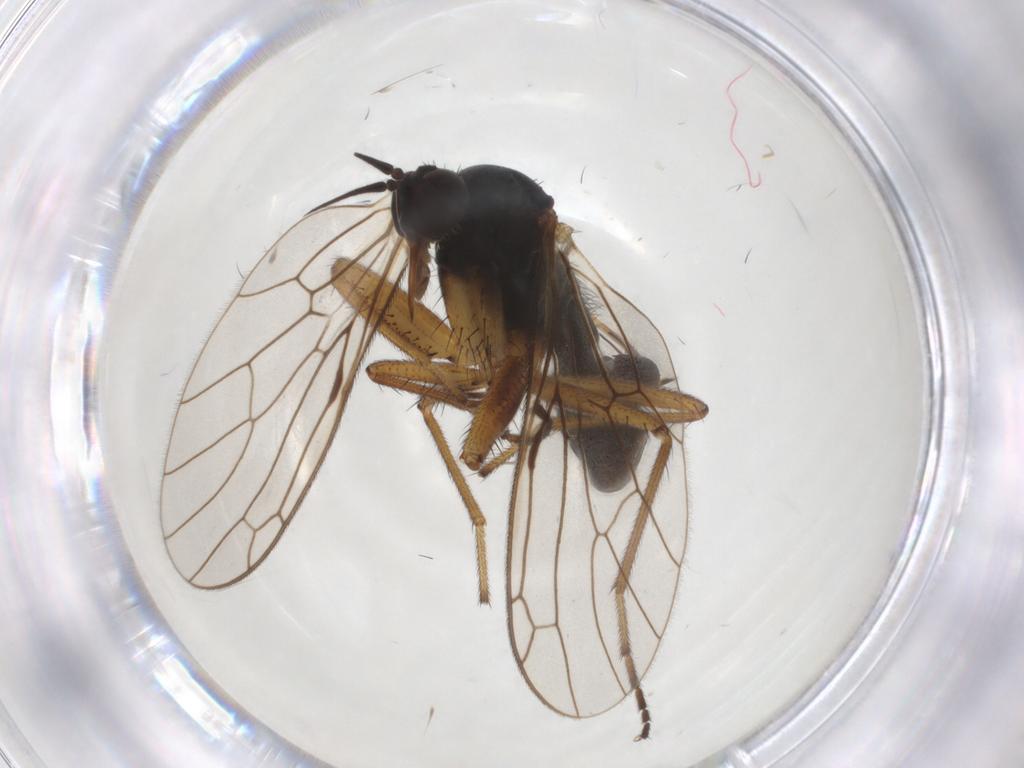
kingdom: Animalia
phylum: Arthropoda
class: Insecta
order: Diptera
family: Empididae
